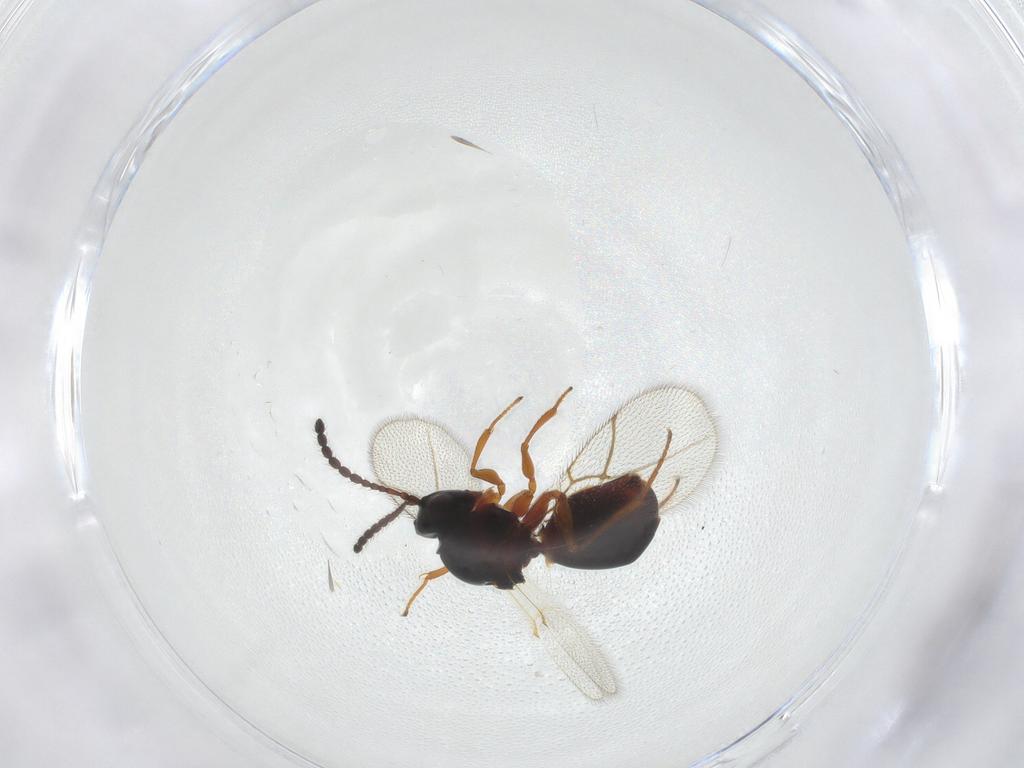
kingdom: Animalia
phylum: Arthropoda
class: Insecta
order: Hymenoptera
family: Figitidae
